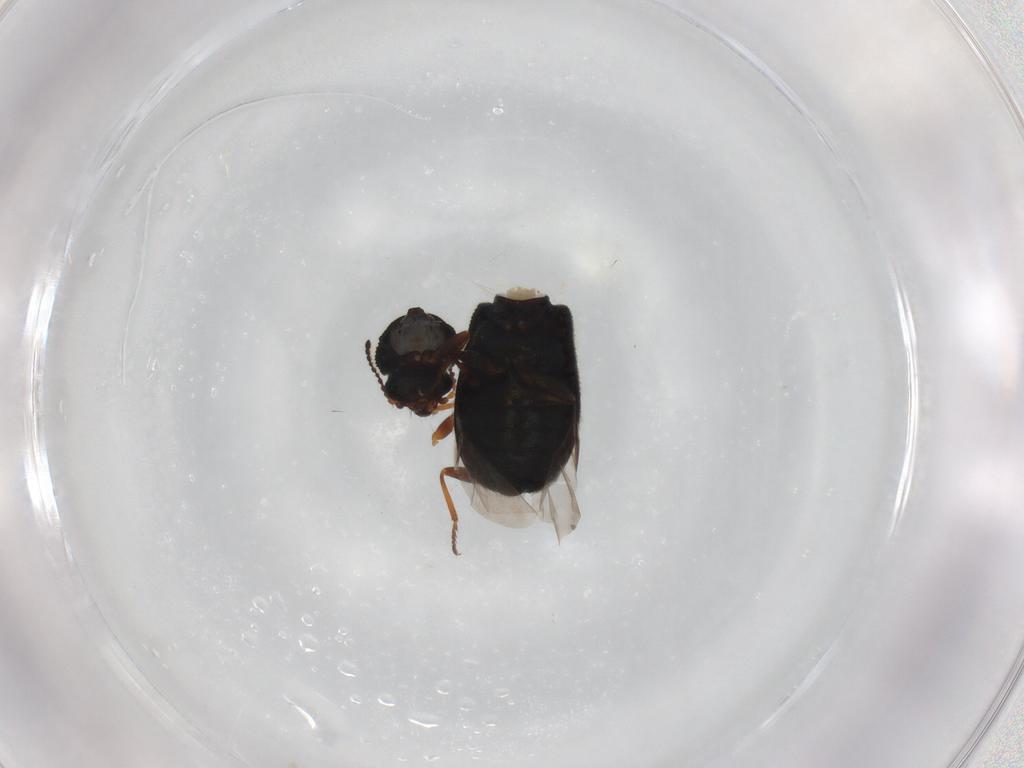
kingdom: Animalia
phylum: Arthropoda
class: Insecta
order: Coleoptera
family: Melyridae
